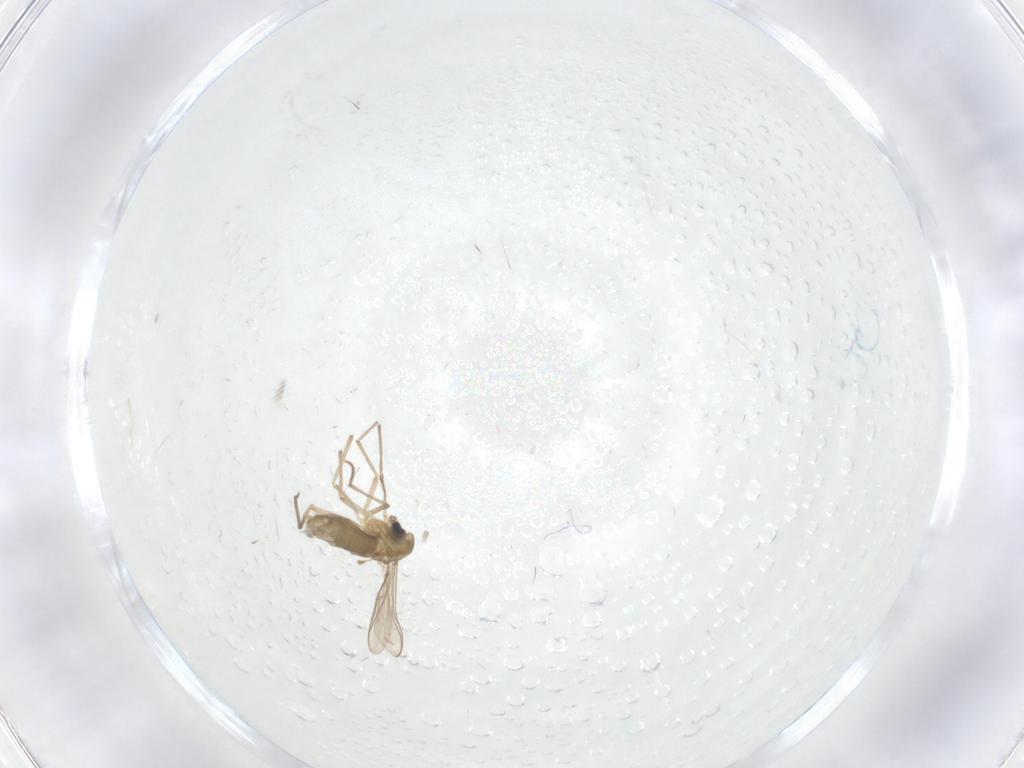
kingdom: Animalia
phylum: Arthropoda
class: Insecta
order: Diptera
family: Chironomidae
